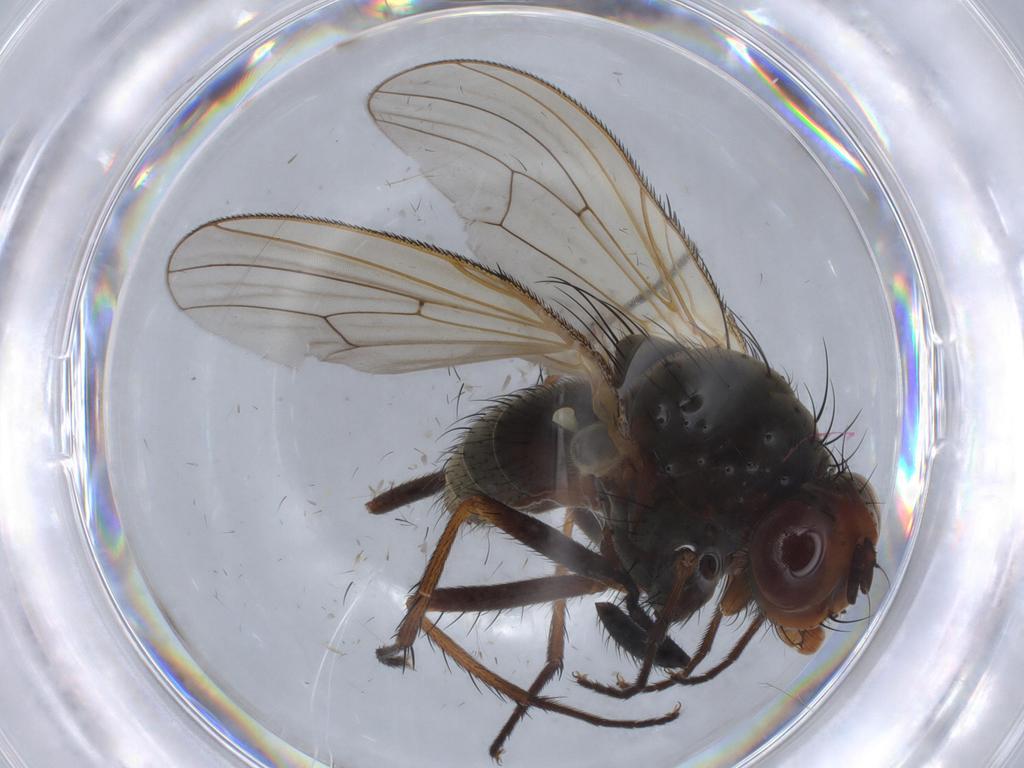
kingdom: Animalia
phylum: Arthropoda
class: Insecta
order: Diptera
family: Anthomyiidae
